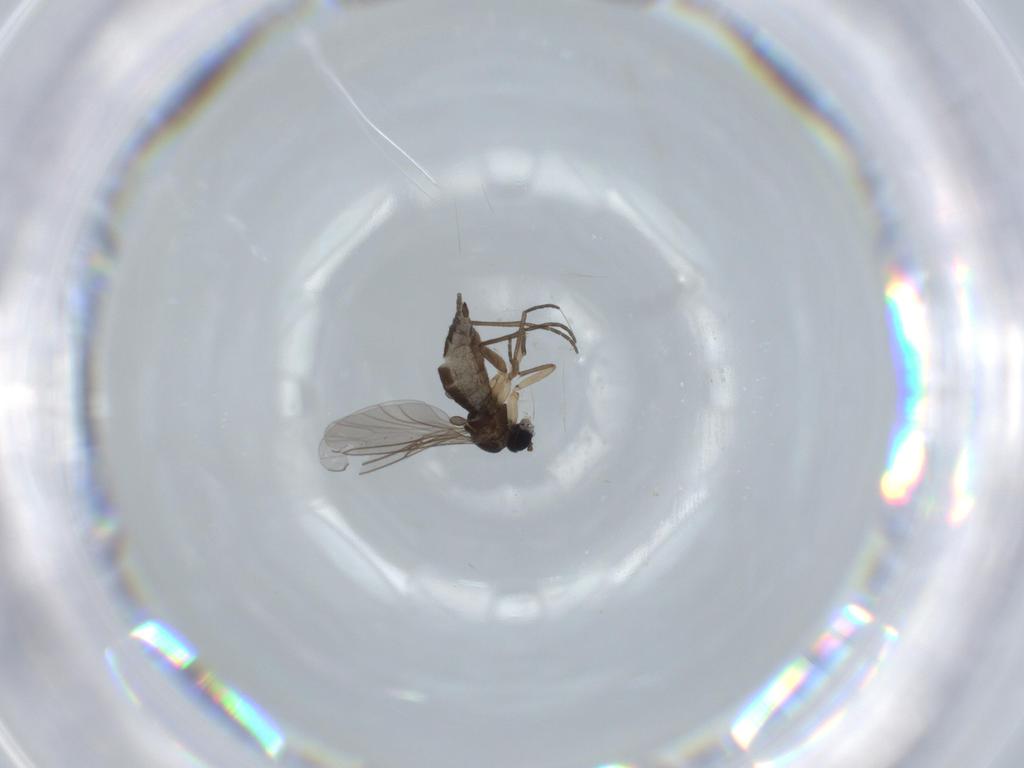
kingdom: Animalia
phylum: Arthropoda
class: Insecta
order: Diptera
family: Sciaridae
